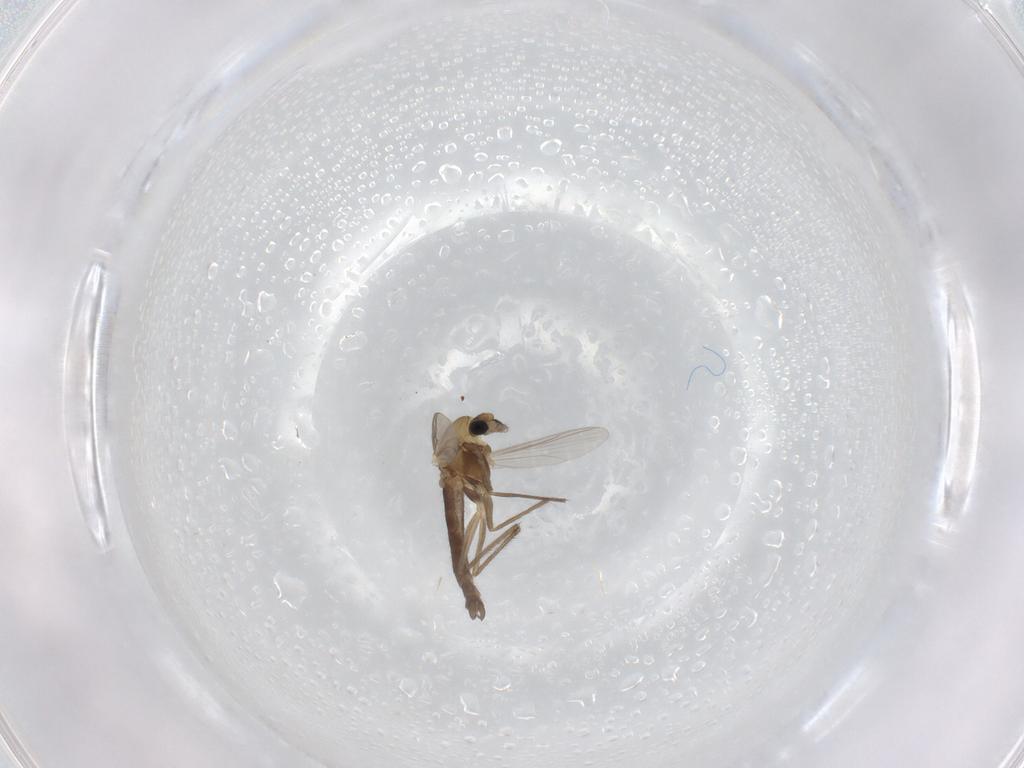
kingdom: Animalia
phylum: Arthropoda
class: Insecta
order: Diptera
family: Chironomidae
